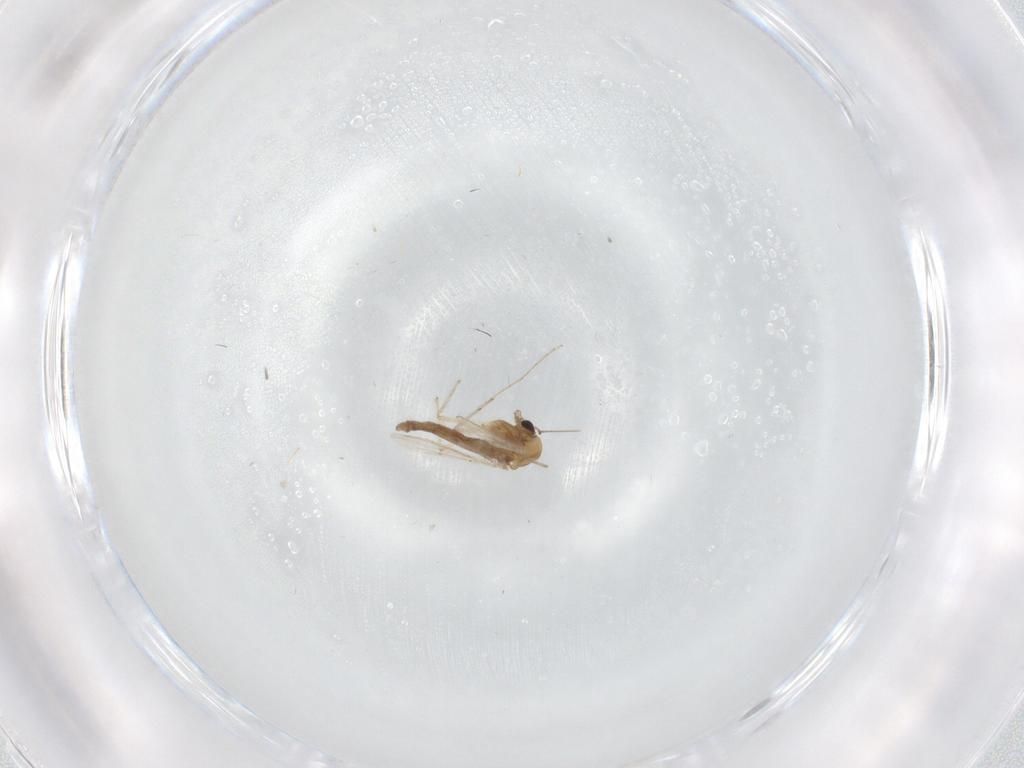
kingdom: Animalia
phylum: Arthropoda
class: Insecta
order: Diptera
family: Chironomidae
